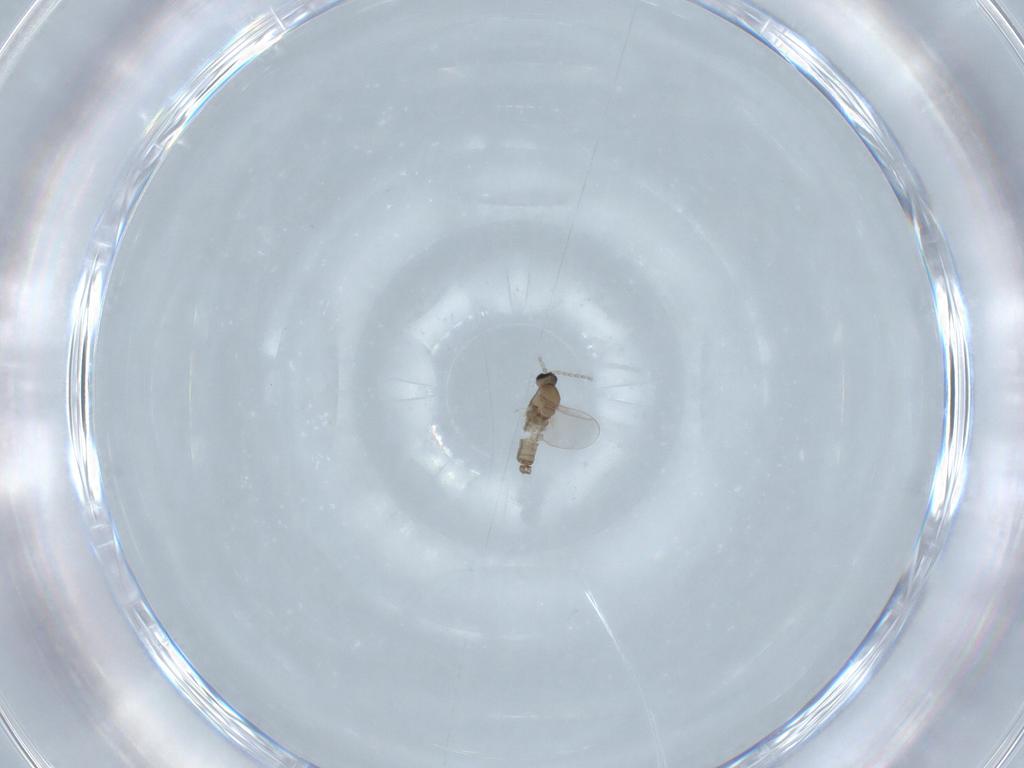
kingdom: Animalia
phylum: Arthropoda
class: Insecta
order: Diptera
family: Cecidomyiidae
